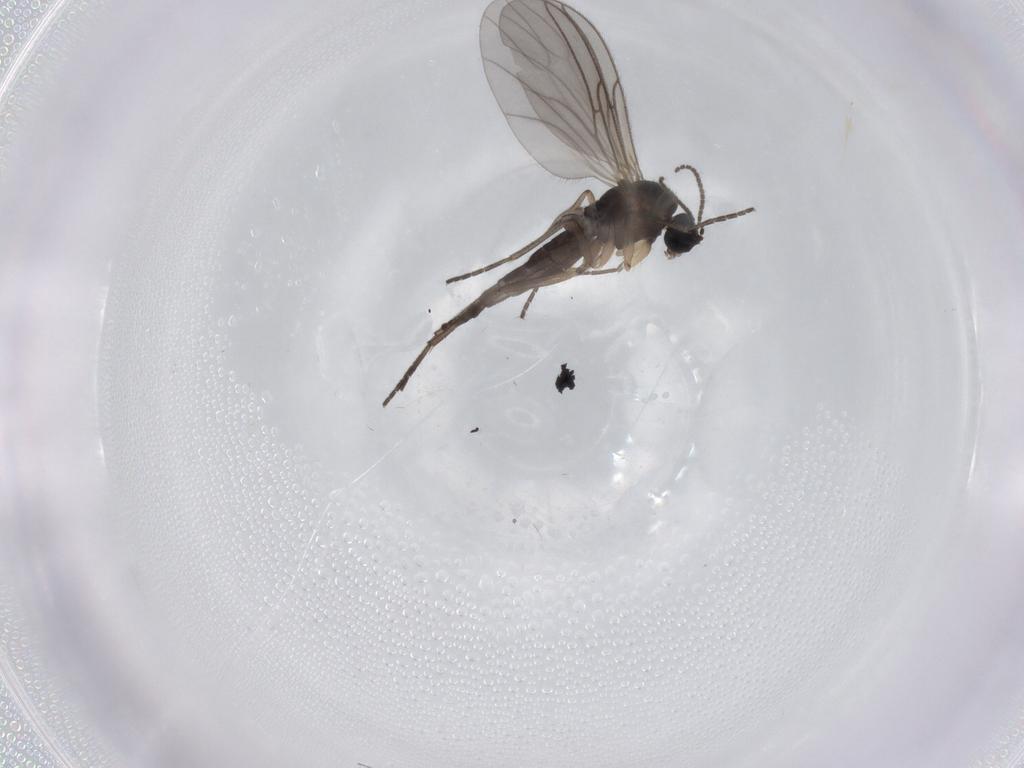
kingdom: Animalia
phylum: Arthropoda
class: Insecta
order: Diptera
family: Sciaridae
